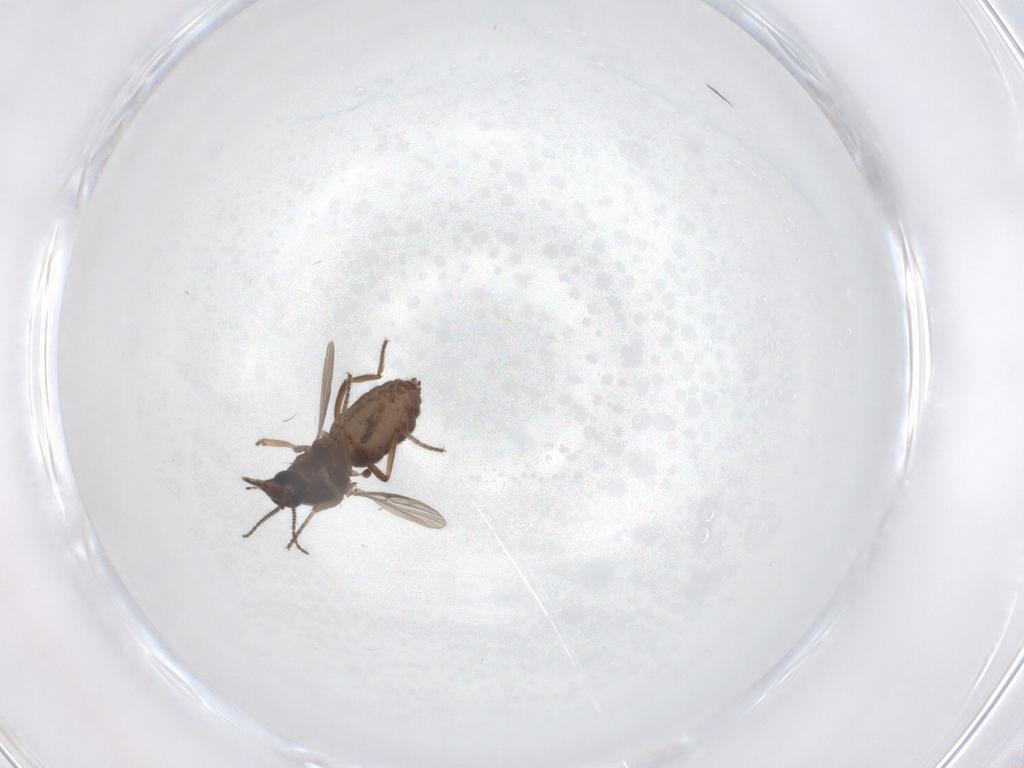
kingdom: Animalia
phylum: Arthropoda
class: Insecta
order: Diptera
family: Ceratopogonidae
